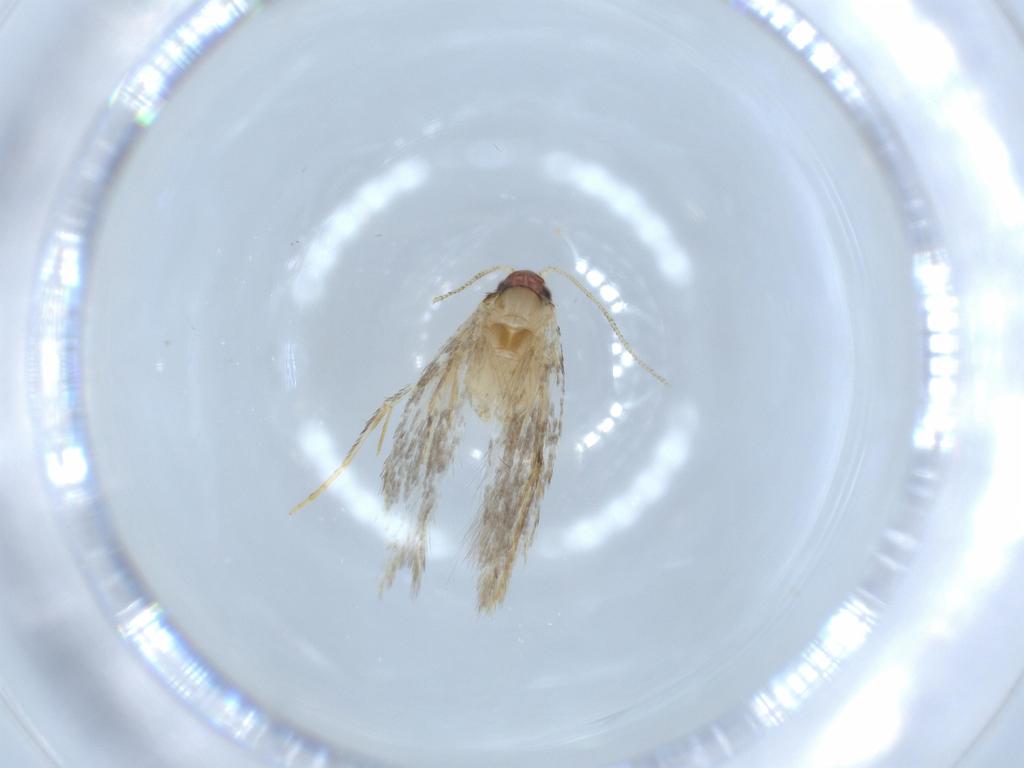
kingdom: Animalia
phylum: Arthropoda
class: Insecta
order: Lepidoptera
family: Tineidae
